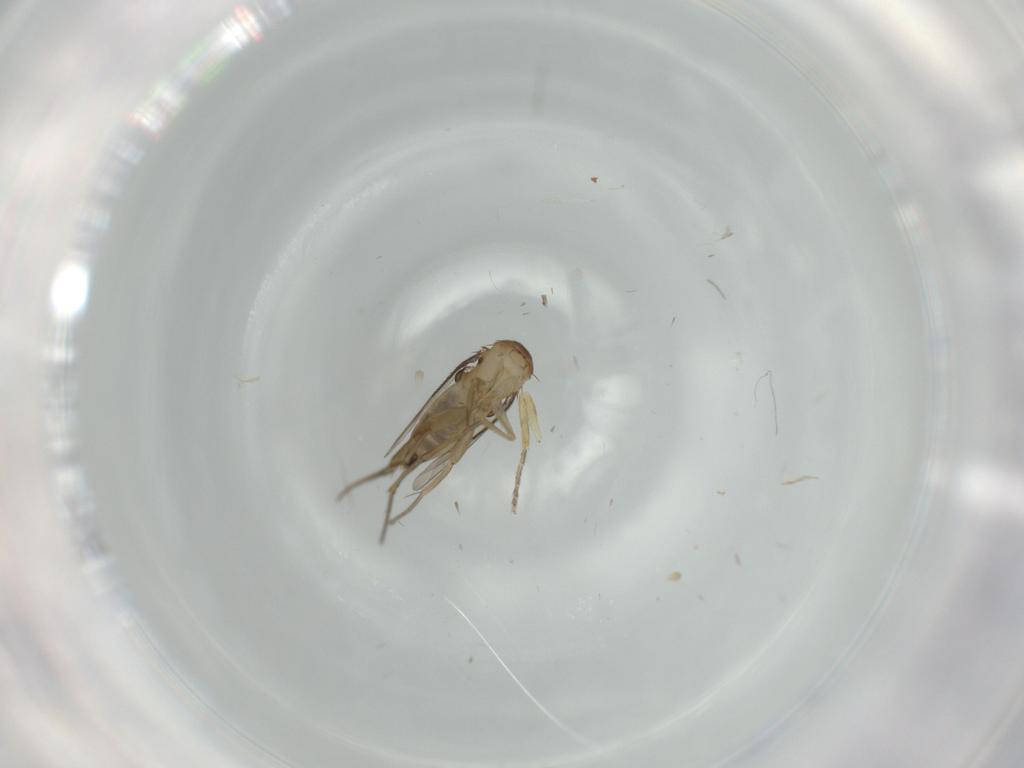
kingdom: Animalia
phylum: Arthropoda
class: Insecta
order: Diptera
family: Phoridae
